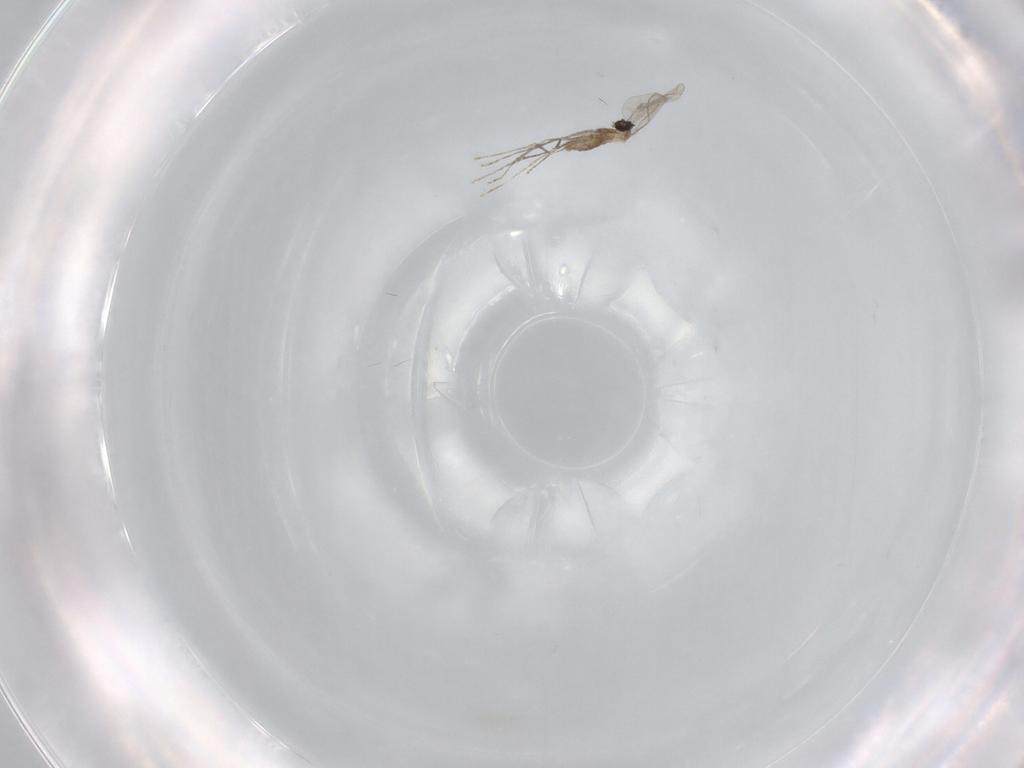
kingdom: Animalia
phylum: Arthropoda
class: Insecta
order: Diptera
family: Cecidomyiidae
